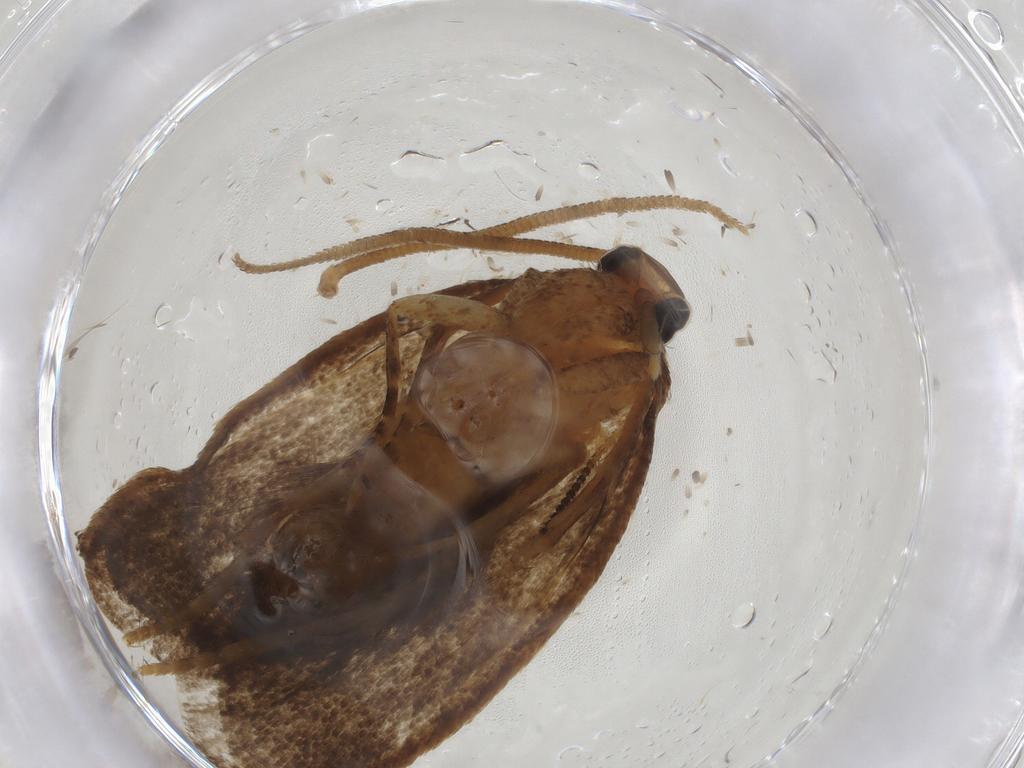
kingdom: Animalia
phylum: Arthropoda
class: Insecta
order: Lepidoptera
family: Tineidae
